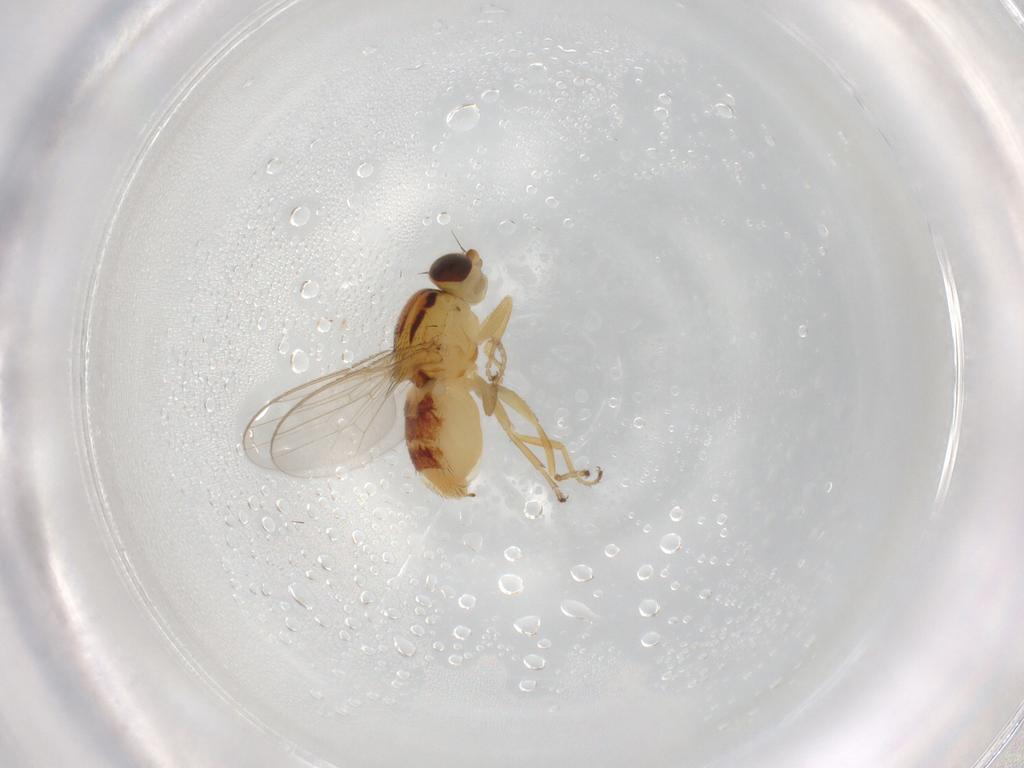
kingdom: Animalia
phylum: Arthropoda
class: Insecta
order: Diptera
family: Chloropidae
